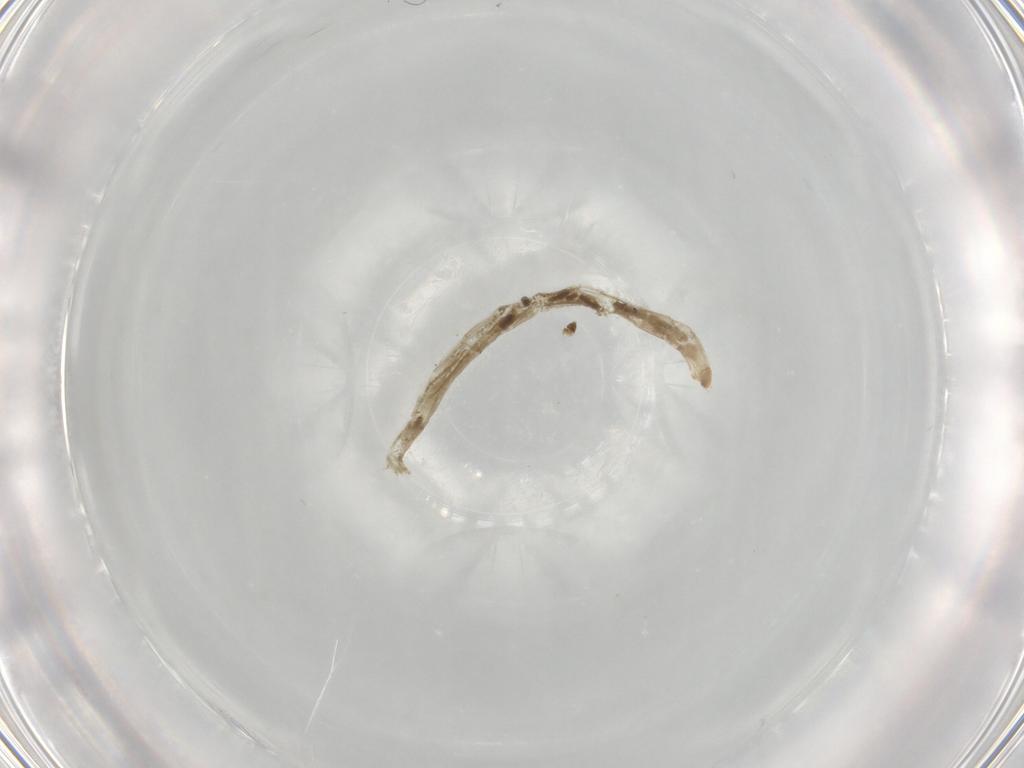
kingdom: Animalia
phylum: Arthropoda
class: Insecta
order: Diptera
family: Chironomidae
